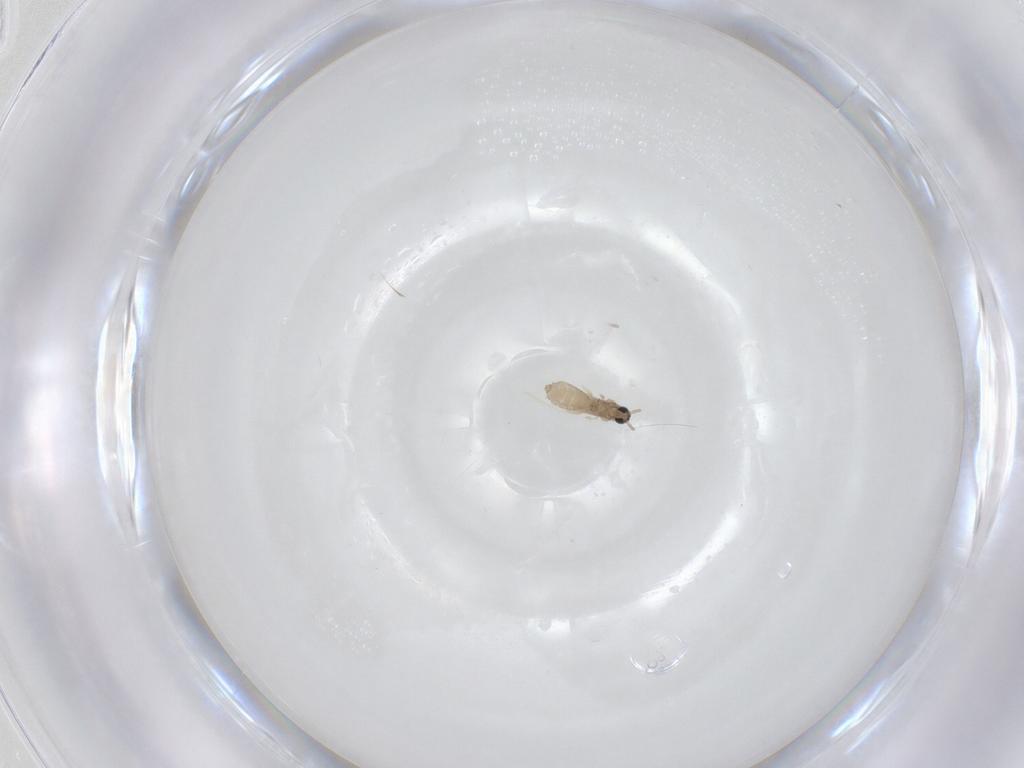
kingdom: Animalia
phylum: Arthropoda
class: Insecta
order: Diptera
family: Cecidomyiidae
